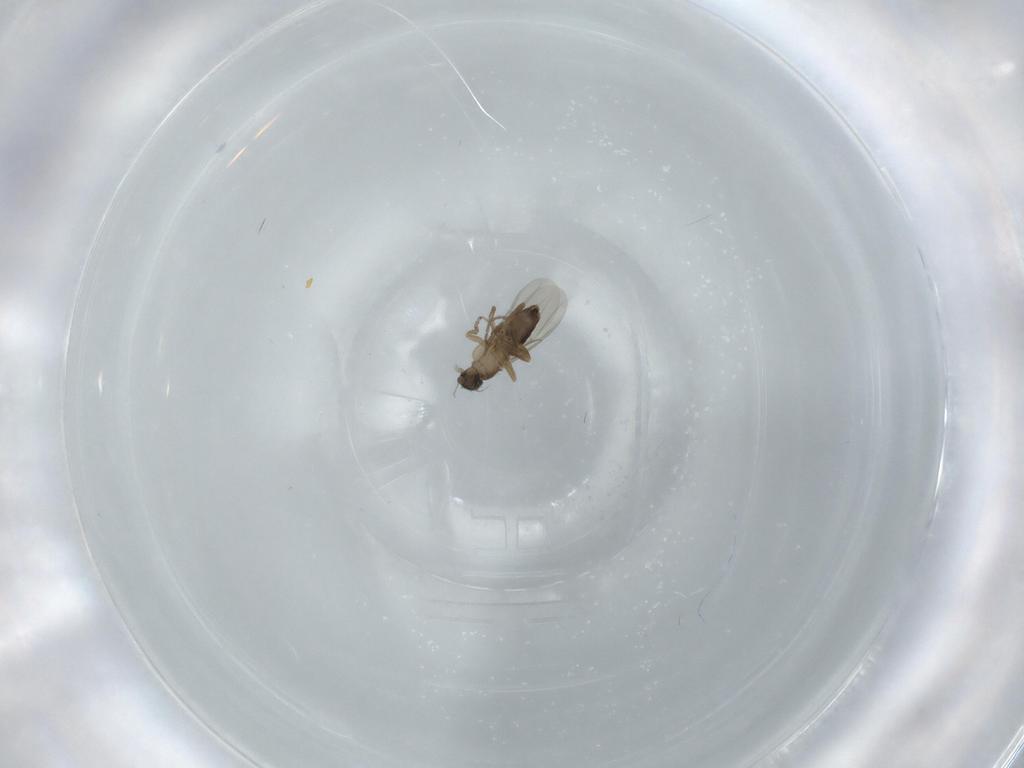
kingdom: Animalia
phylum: Arthropoda
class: Insecta
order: Diptera
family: Phoridae
